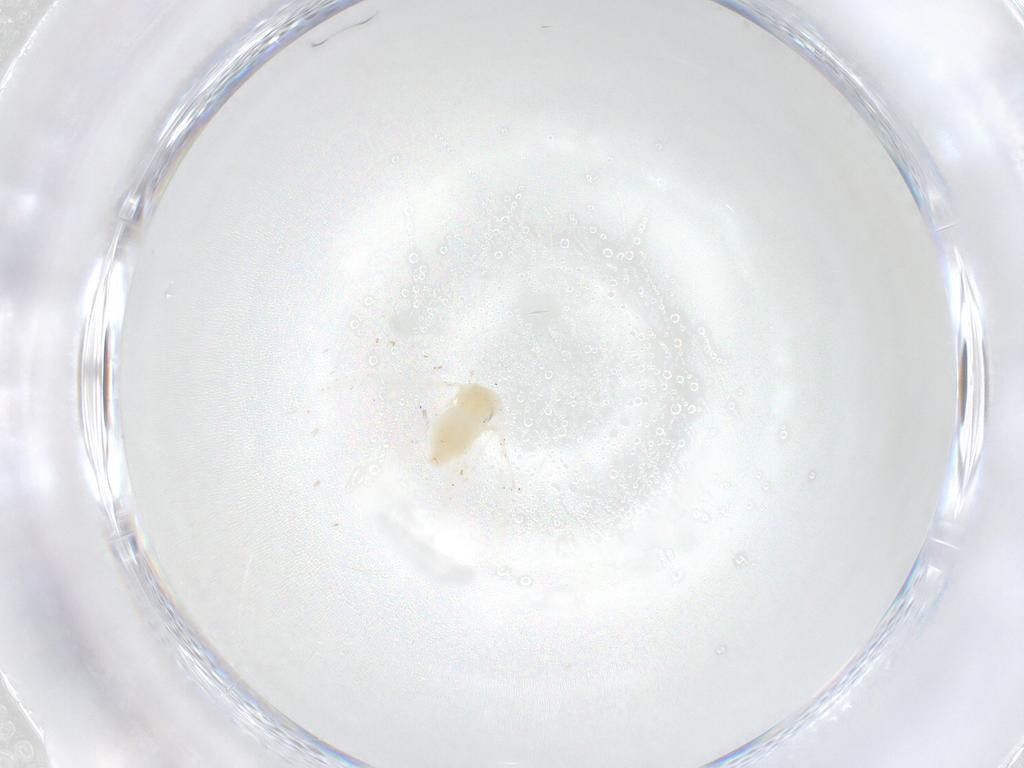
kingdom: Animalia
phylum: Arthropoda
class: Insecta
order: Hemiptera
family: Aleyrodidae
